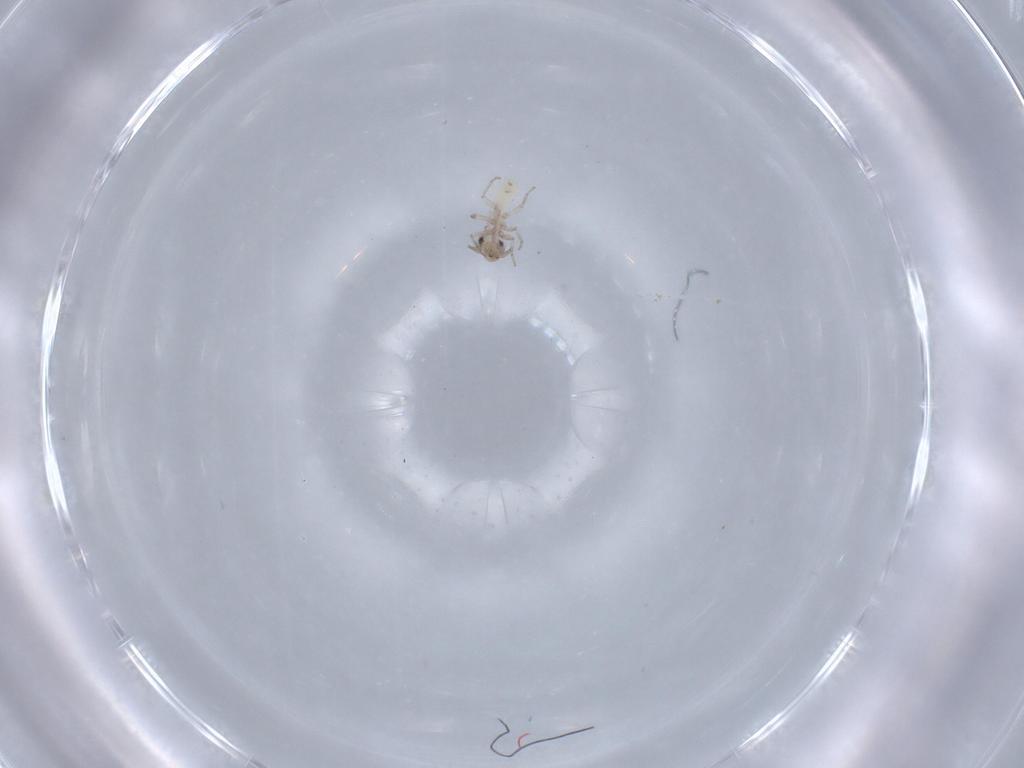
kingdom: Animalia
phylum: Arthropoda
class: Insecta
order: Psocodea
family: Lepidopsocidae
